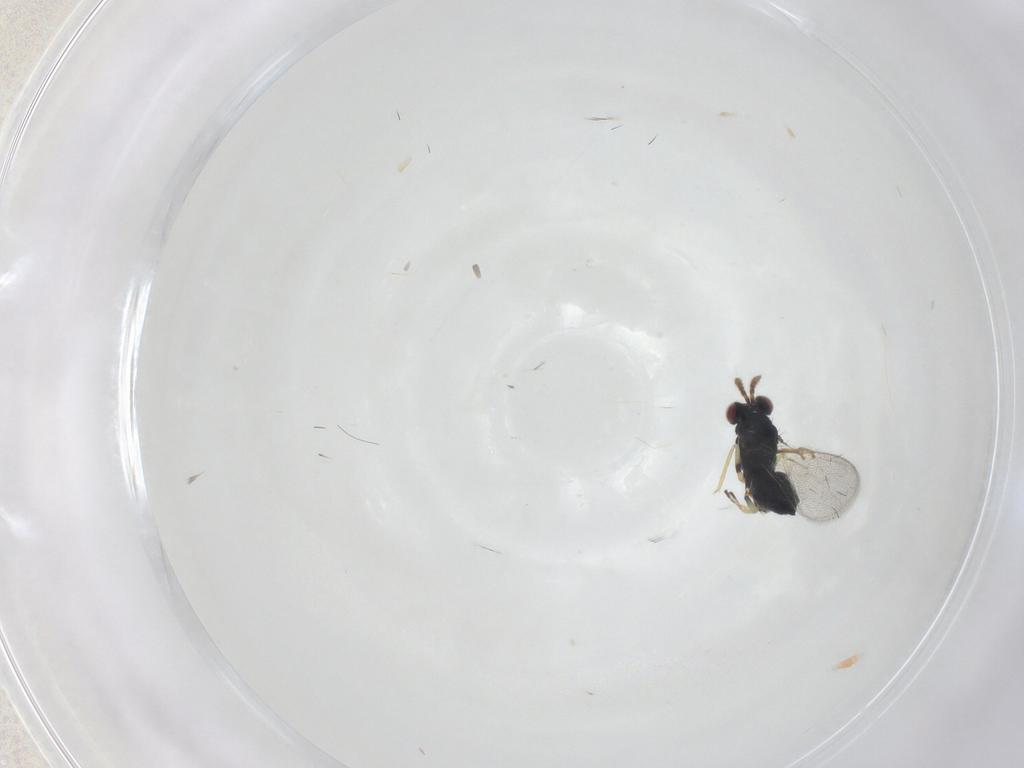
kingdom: Animalia
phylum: Arthropoda
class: Insecta
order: Hymenoptera
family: Eulophidae
